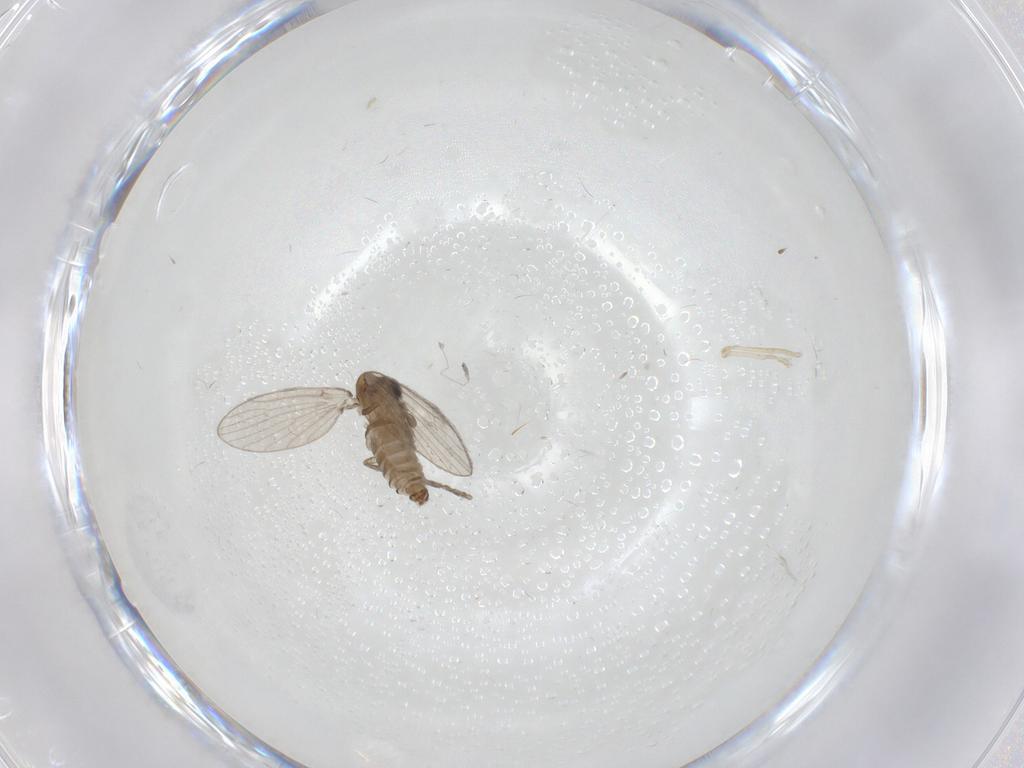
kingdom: Animalia
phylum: Arthropoda
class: Insecta
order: Diptera
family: Psychodidae
